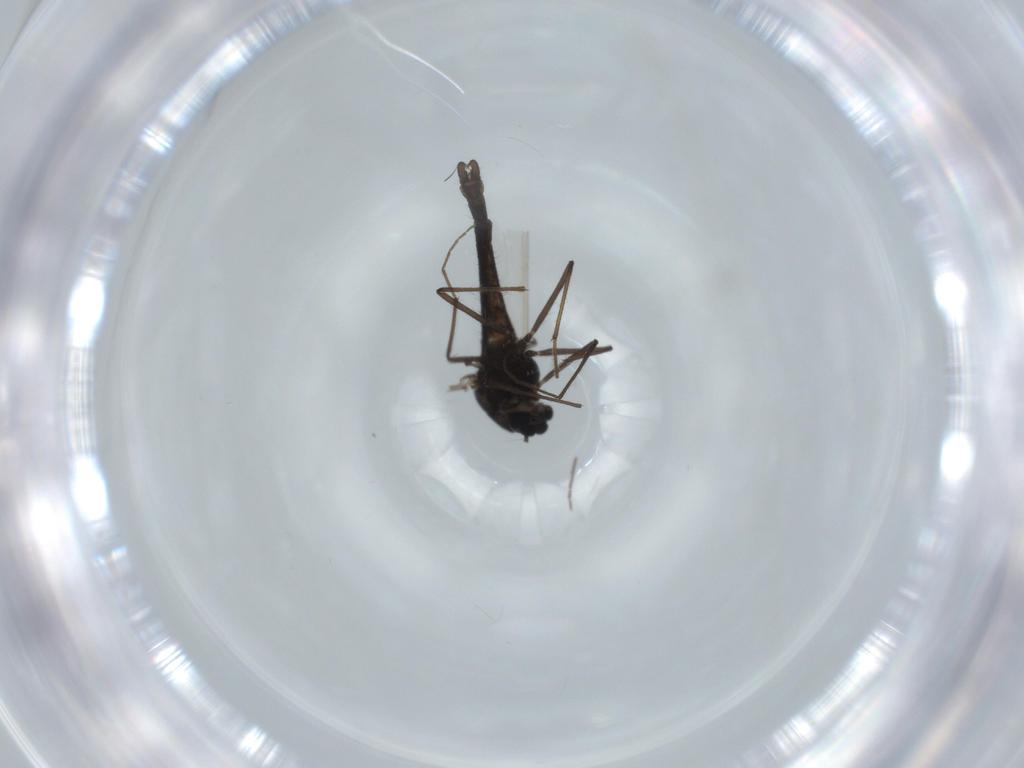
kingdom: Animalia
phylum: Arthropoda
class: Insecta
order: Diptera
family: Chironomidae
